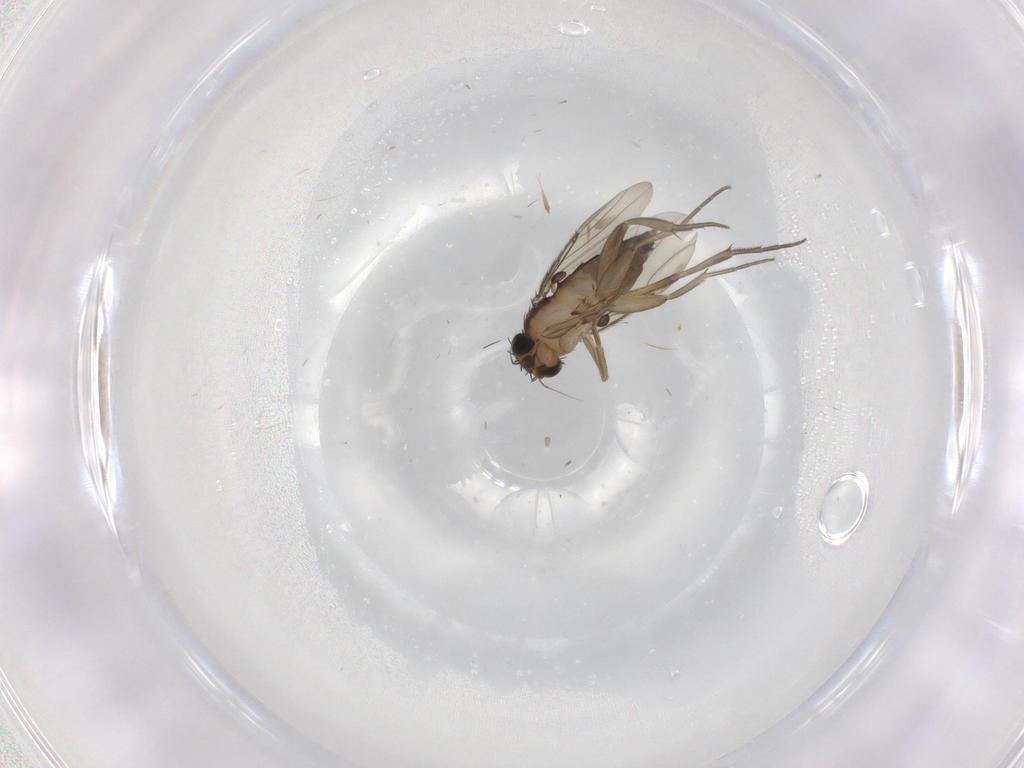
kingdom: Animalia
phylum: Arthropoda
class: Insecta
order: Diptera
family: Phoridae
